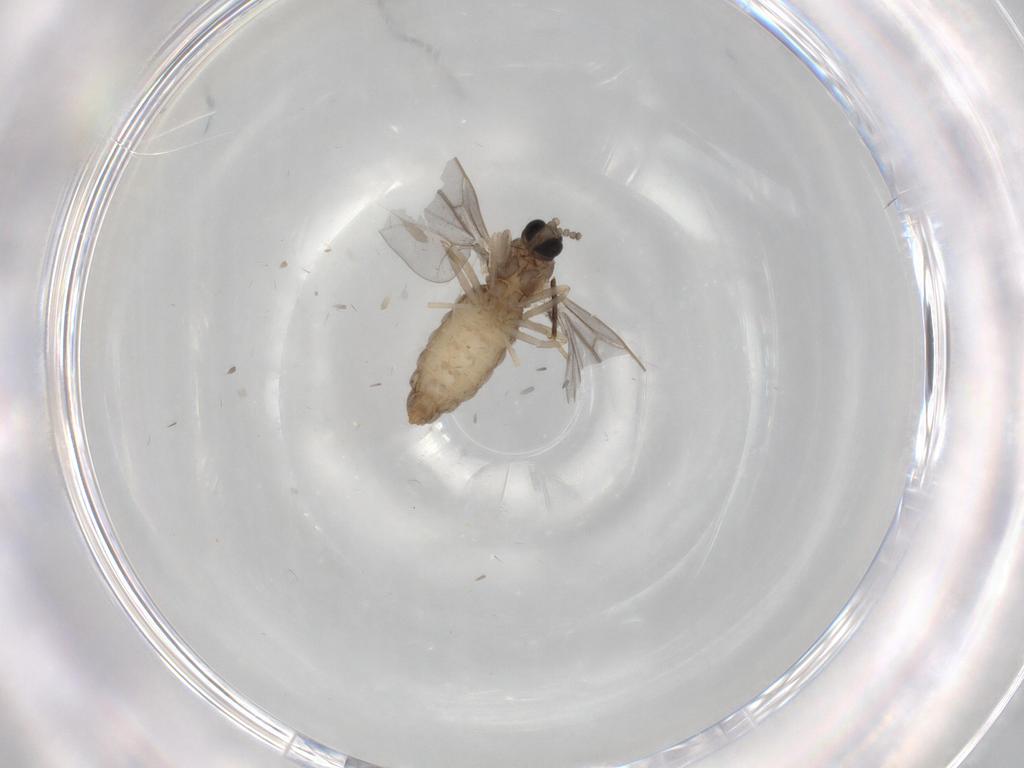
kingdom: Animalia
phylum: Arthropoda
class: Insecta
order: Diptera
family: Cecidomyiidae
